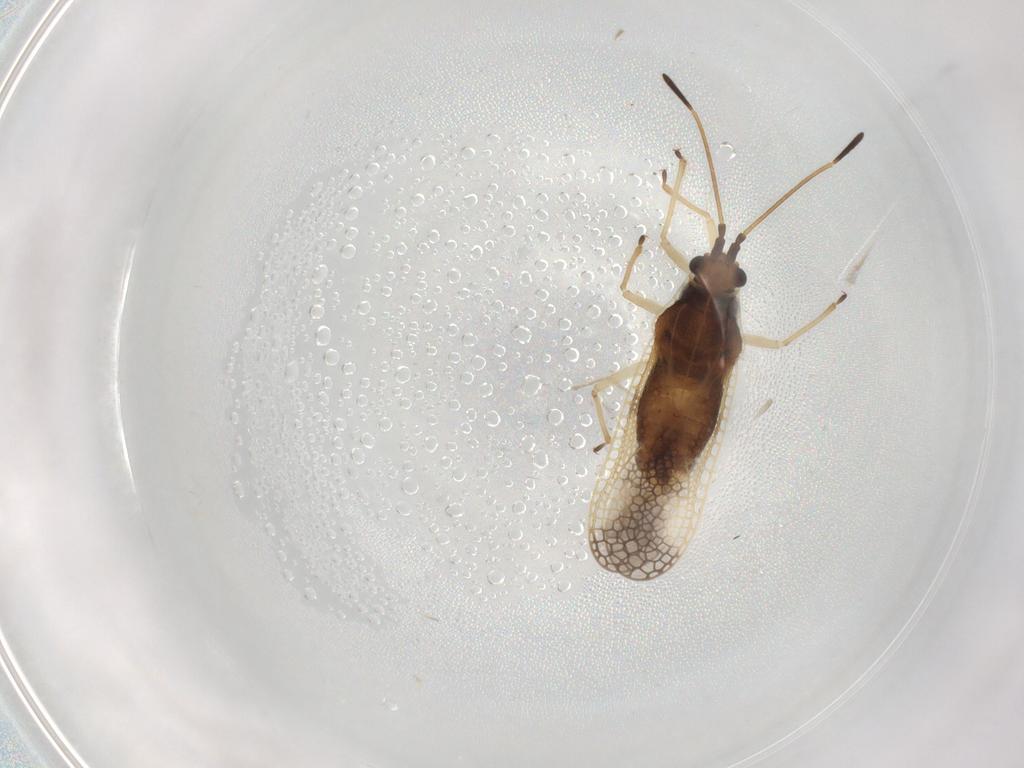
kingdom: Animalia
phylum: Arthropoda
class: Insecta
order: Hemiptera
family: Tingidae
